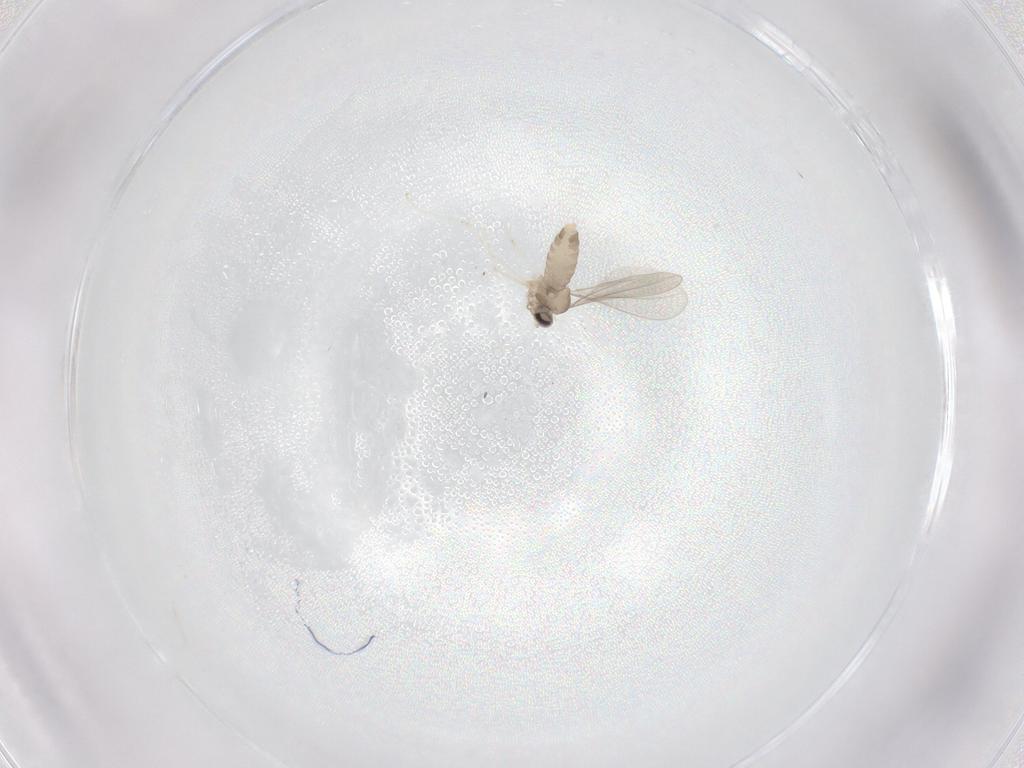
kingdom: Animalia
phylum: Arthropoda
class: Insecta
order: Diptera
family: Cecidomyiidae
